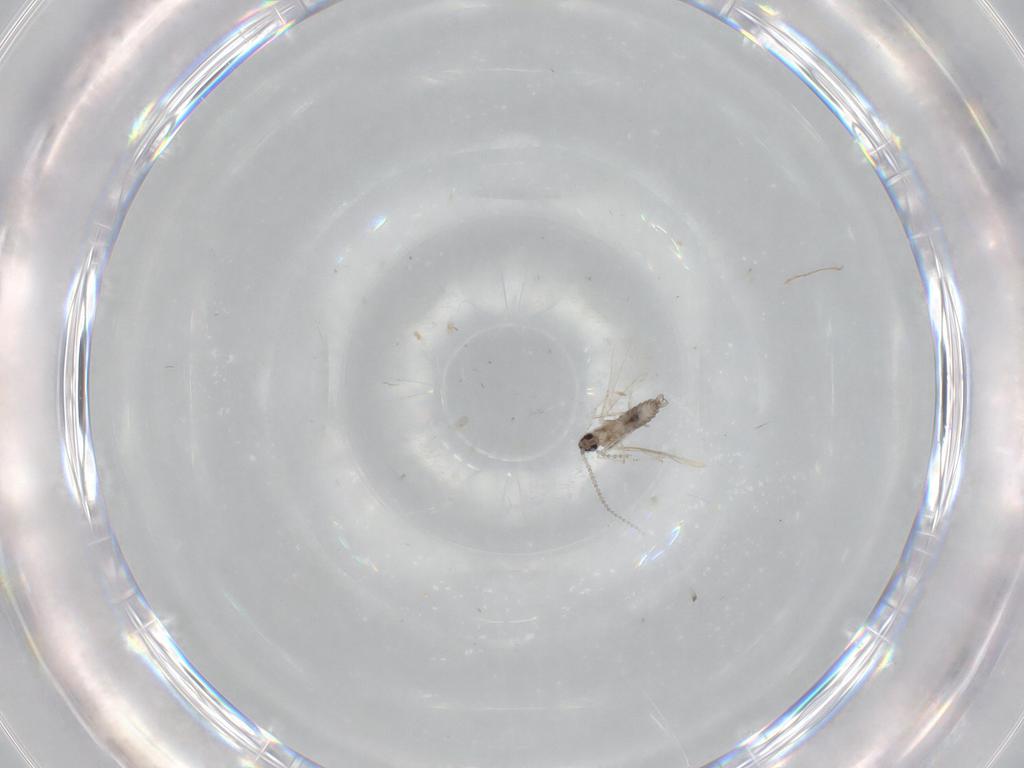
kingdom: Animalia
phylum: Arthropoda
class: Insecta
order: Diptera
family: Cecidomyiidae
